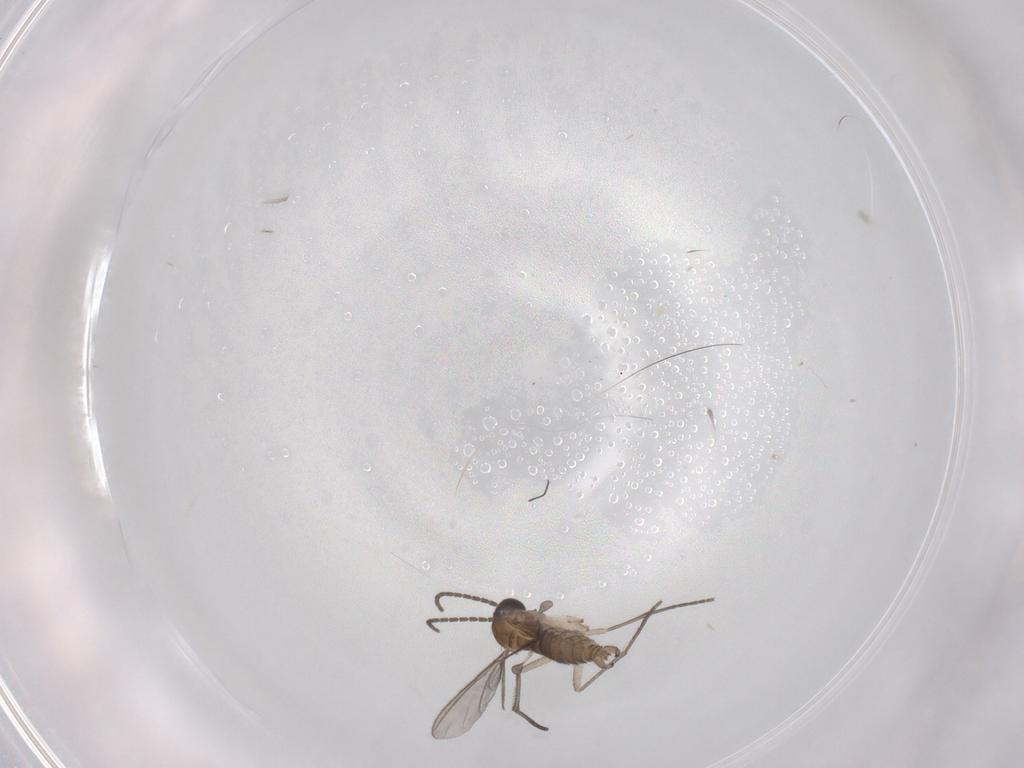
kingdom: Animalia
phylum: Arthropoda
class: Insecta
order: Diptera
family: Sciaridae
